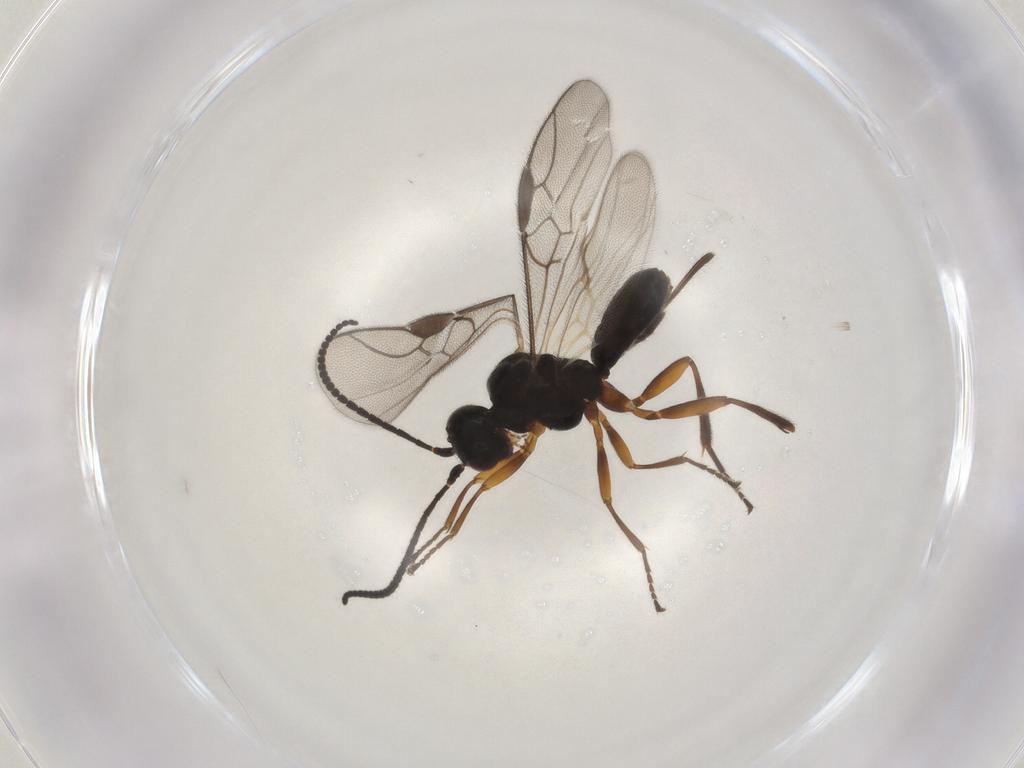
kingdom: Animalia
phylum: Arthropoda
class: Insecta
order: Hymenoptera
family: Braconidae
